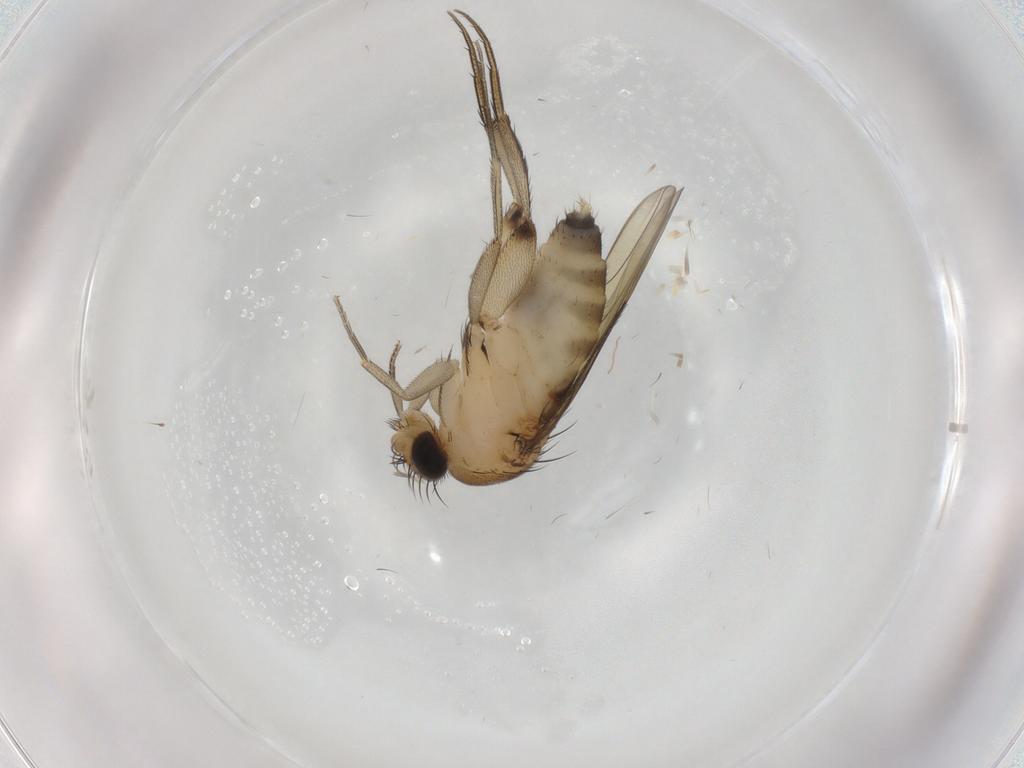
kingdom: Animalia
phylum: Arthropoda
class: Insecta
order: Diptera
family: Phoridae
